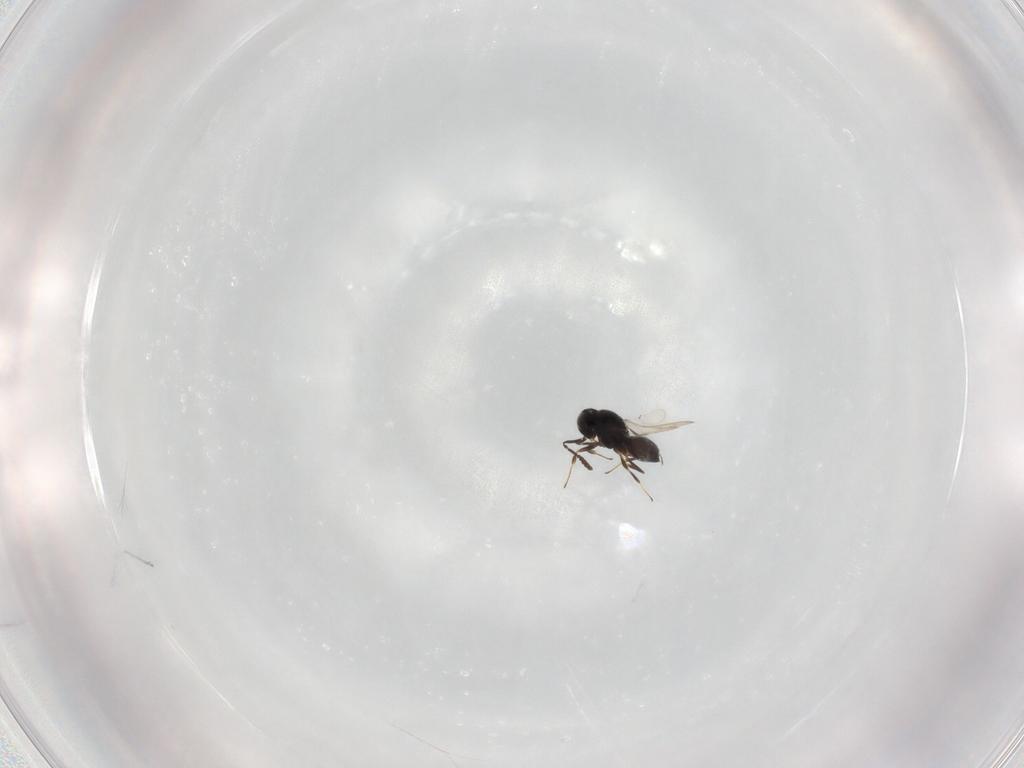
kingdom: Animalia
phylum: Arthropoda
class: Insecta
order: Hymenoptera
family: Scelionidae
